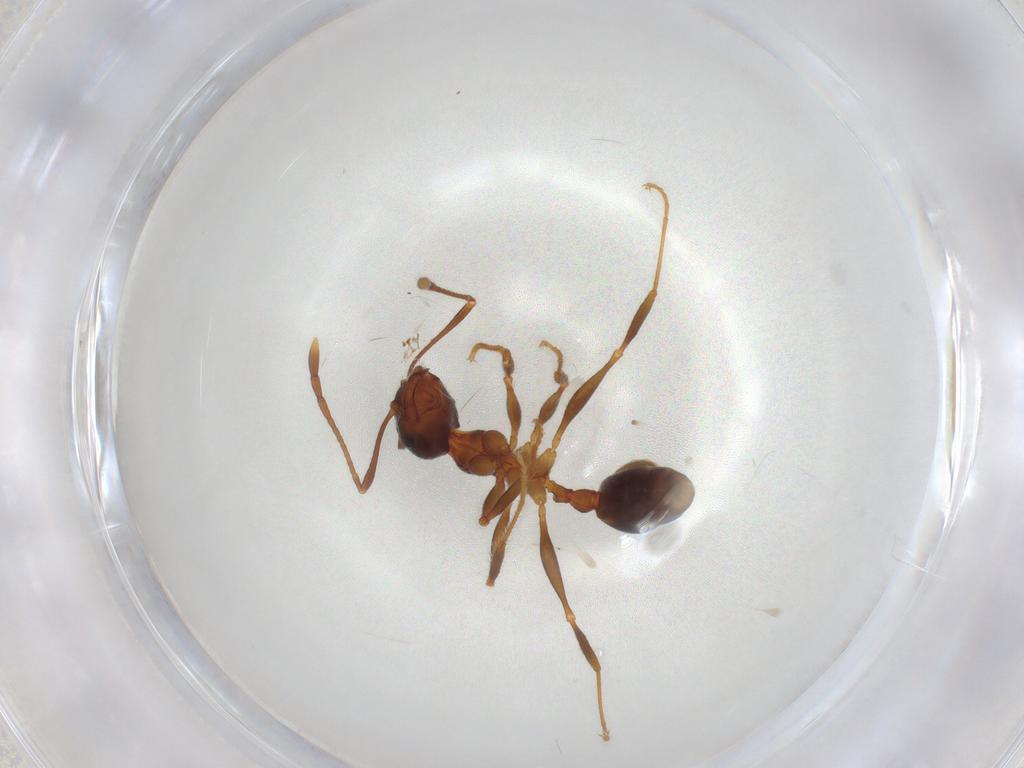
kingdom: Animalia
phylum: Arthropoda
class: Insecta
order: Hymenoptera
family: Formicidae
